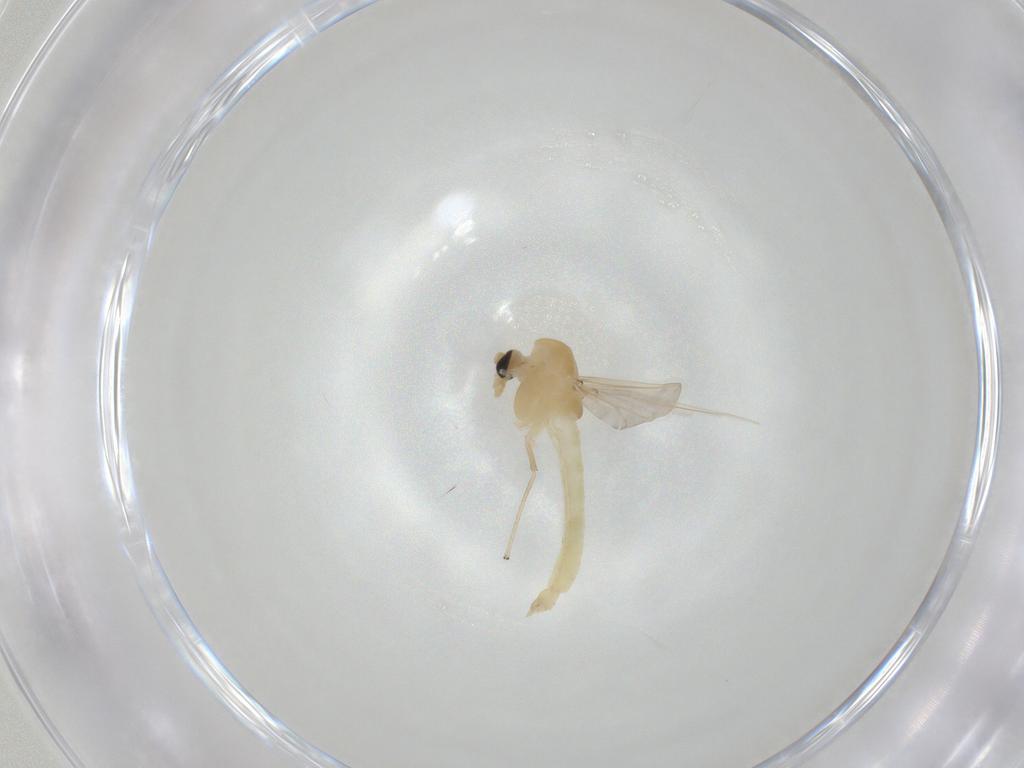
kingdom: Animalia
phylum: Arthropoda
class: Insecta
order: Diptera
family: Chironomidae
